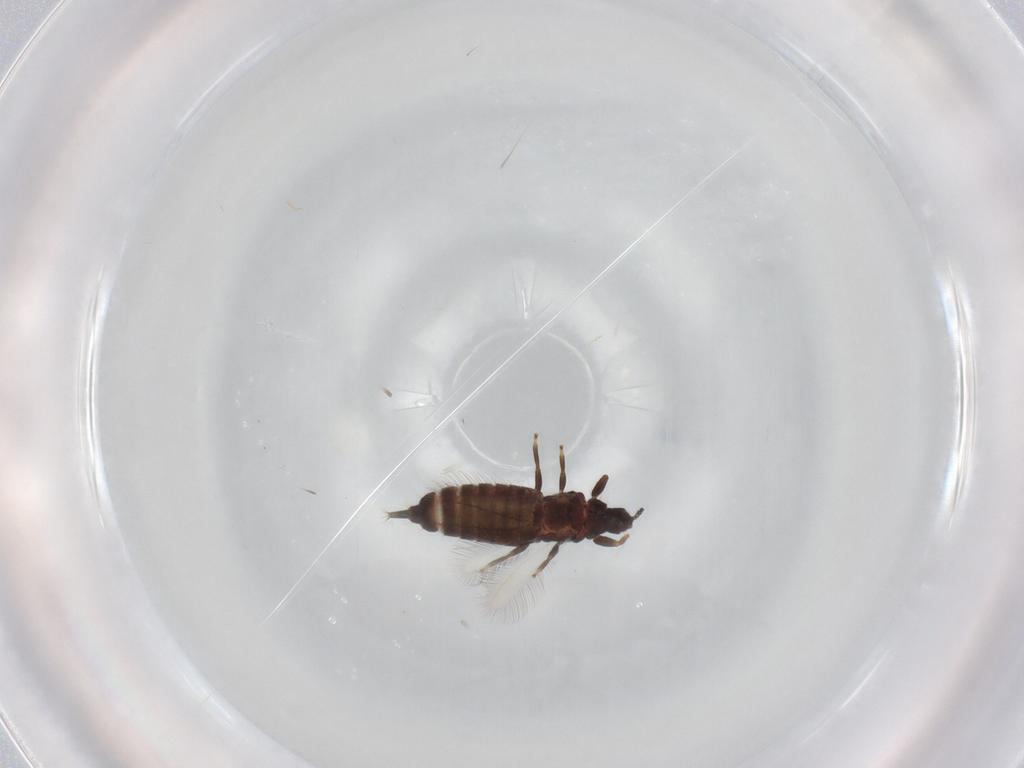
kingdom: Animalia
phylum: Arthropoda
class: Insecta
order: Thysanoptera
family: Phlaeothripidae
